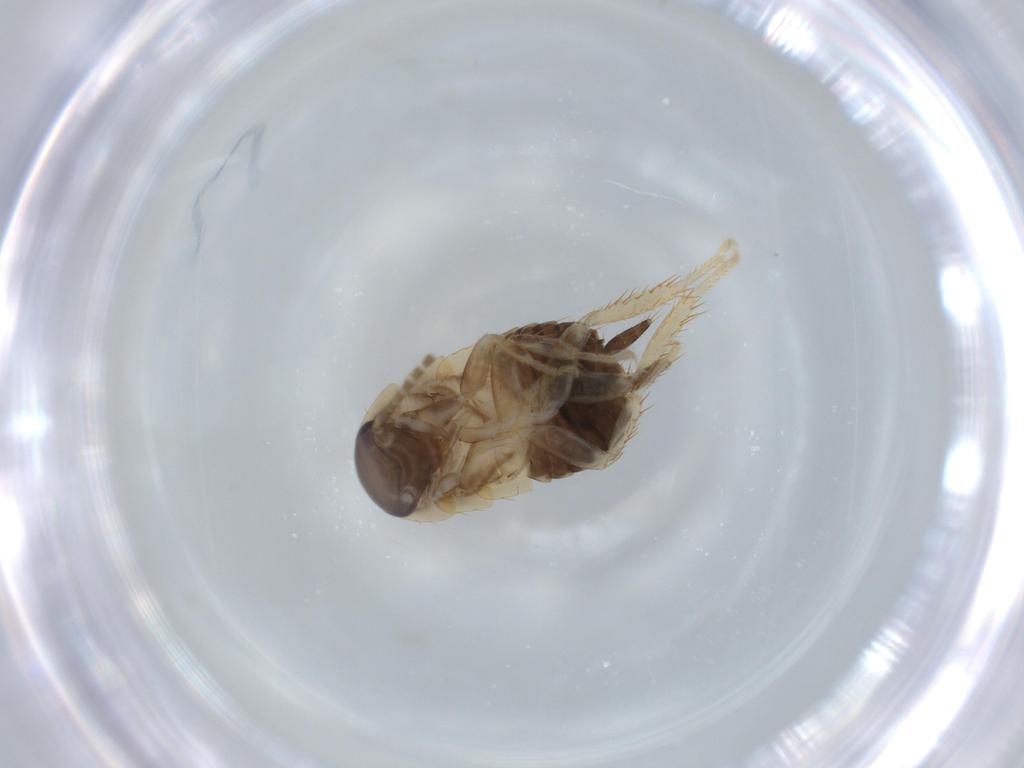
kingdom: Animalia
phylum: Arthropoda
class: Insecta
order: Blattodea
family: Ectobiidae
